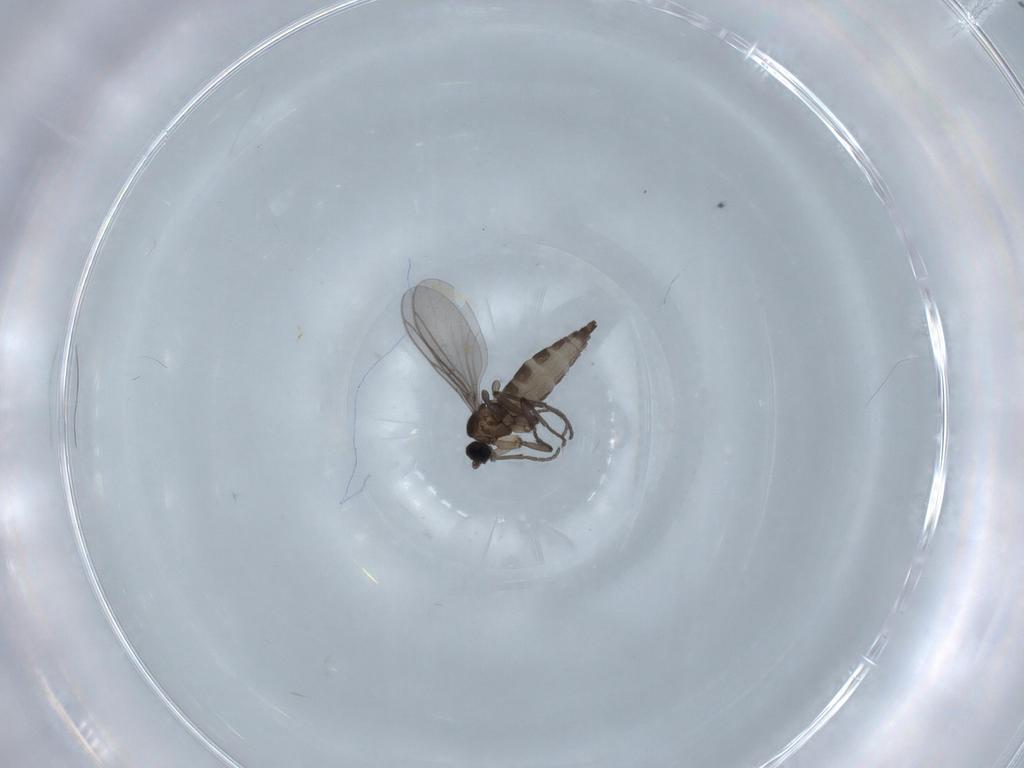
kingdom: Animalia
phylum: Arthropoda
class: Insecta
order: Diptera
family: Chironomidae
